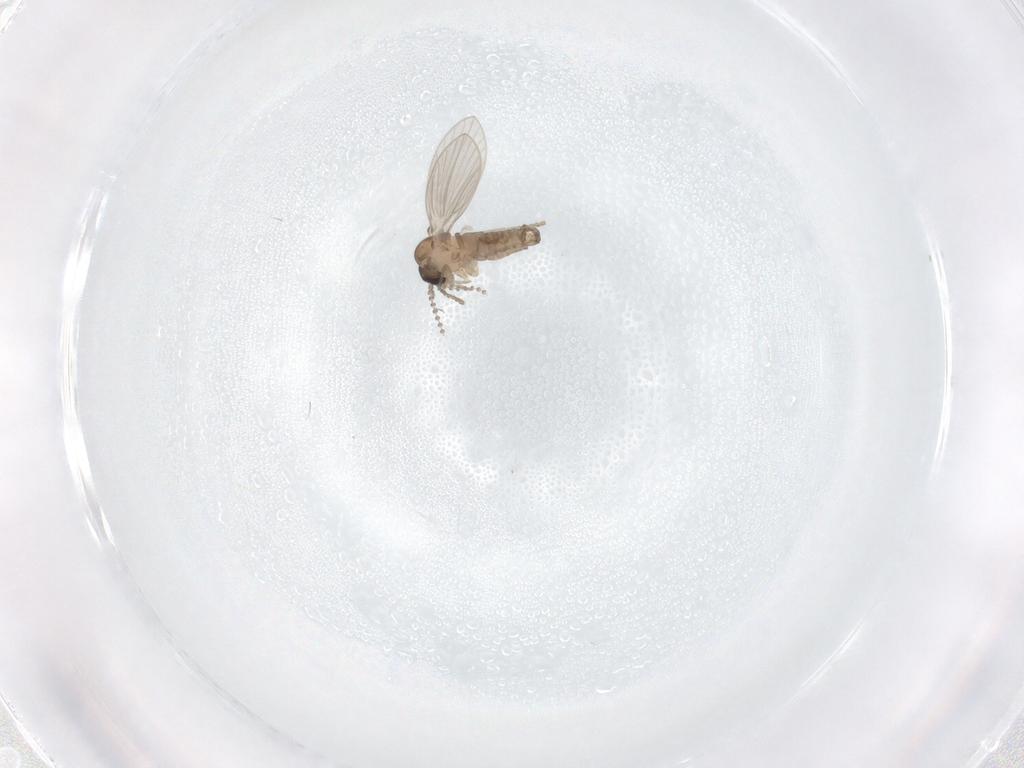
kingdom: Animalia
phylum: Arthropoda
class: Insecta
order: Diptera
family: Psychodidae
